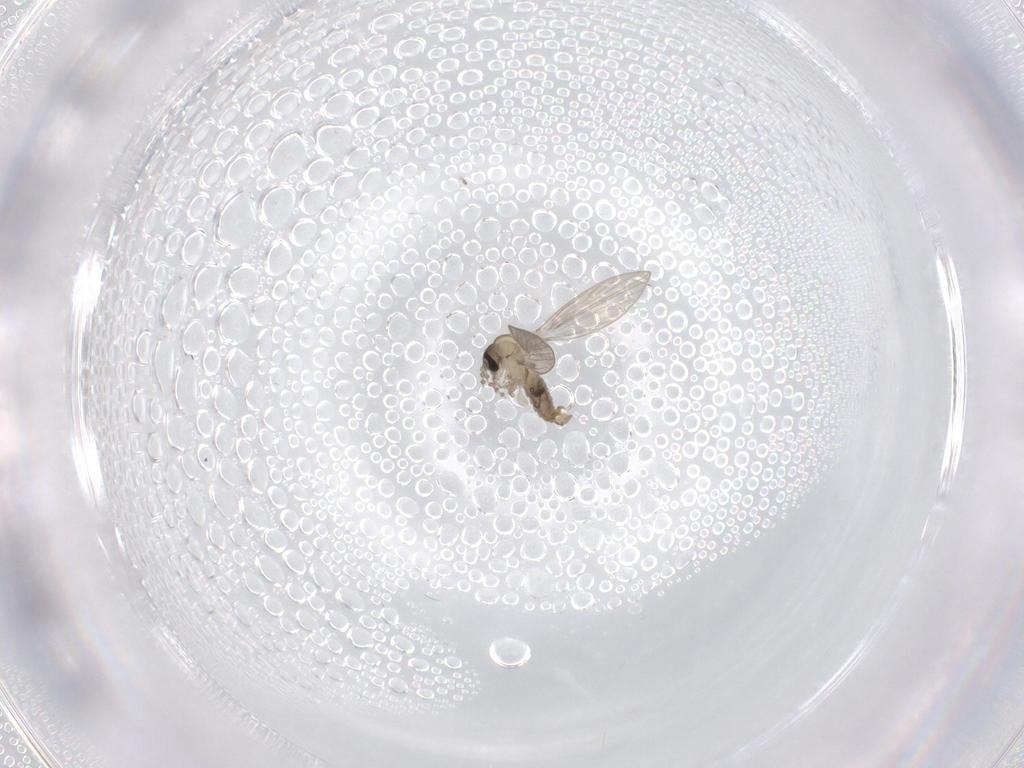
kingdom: Animalia
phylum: Arthropoda
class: Insecta
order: Diptera
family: Psychodidae
